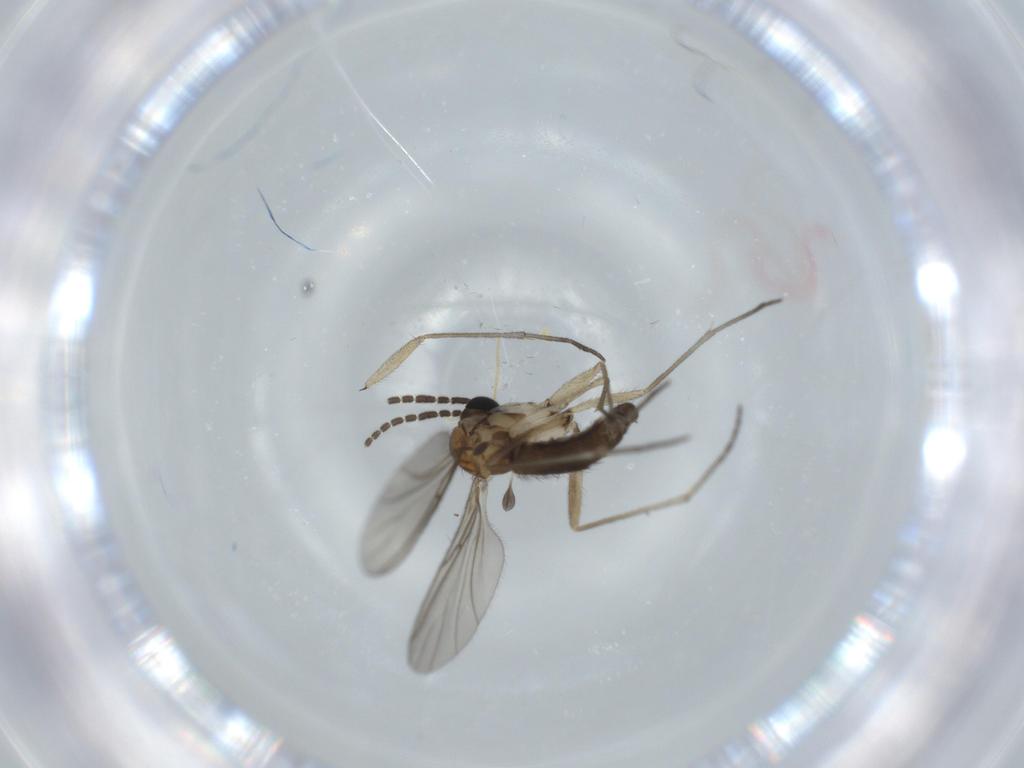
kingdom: Animalia
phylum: Arthropoda
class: Insecta
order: Diptera
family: Sciaridae
